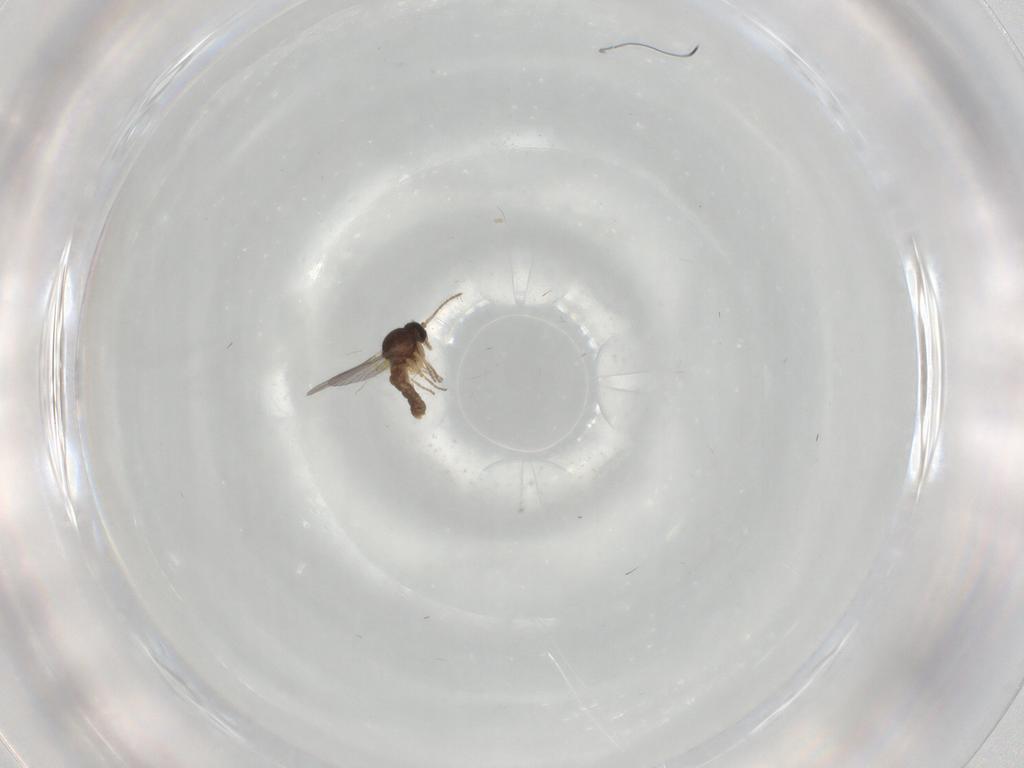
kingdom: Animalia
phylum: Arthropoda
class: Insecta
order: Diptera
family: Ceratopogonidae
